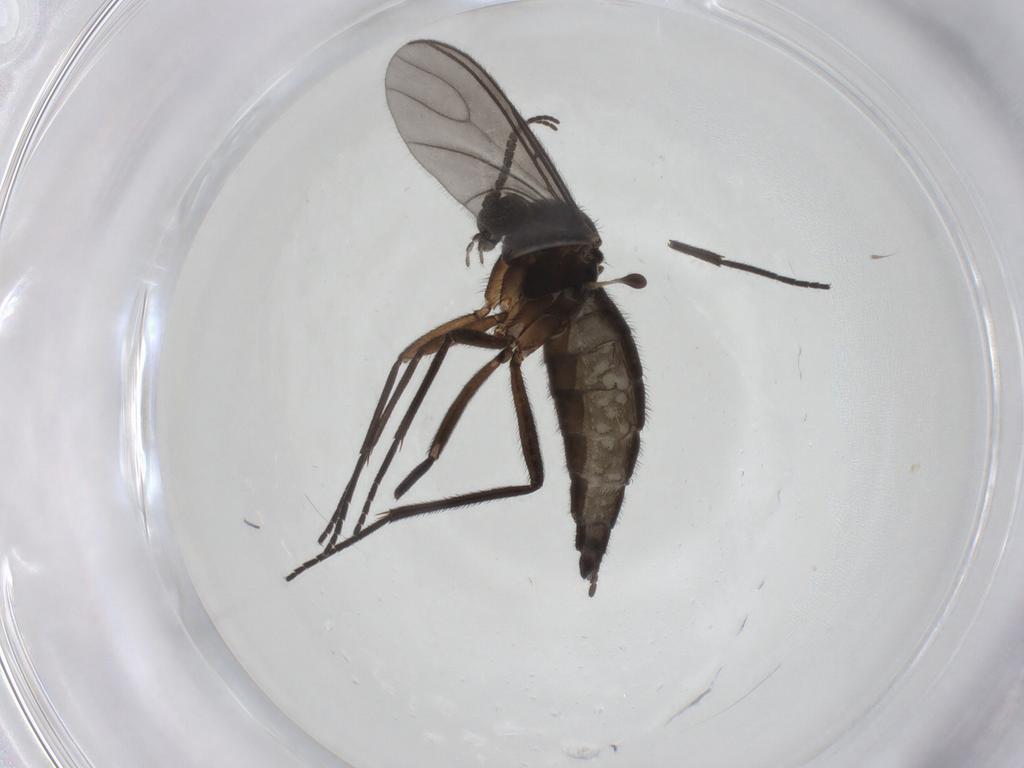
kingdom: Animalia
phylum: Arthropoda
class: Insecta
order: Diptera
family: Sciaridae
